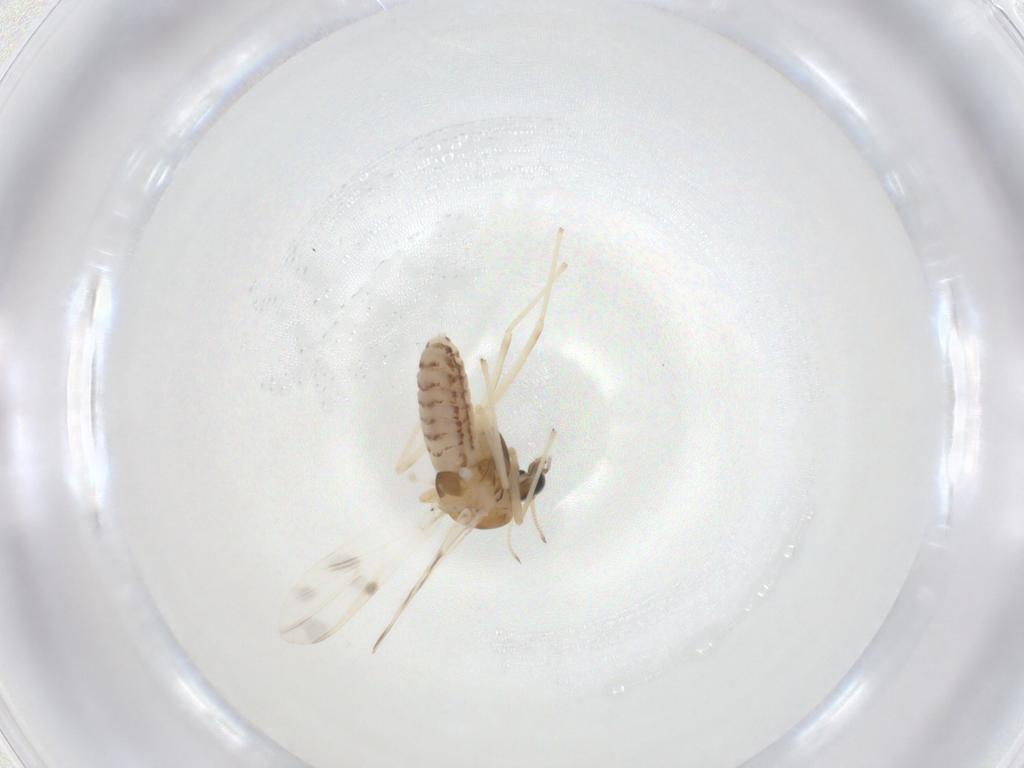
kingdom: Animalia
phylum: Arthropoda
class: Insecta
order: Diptera
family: Chironomidae
